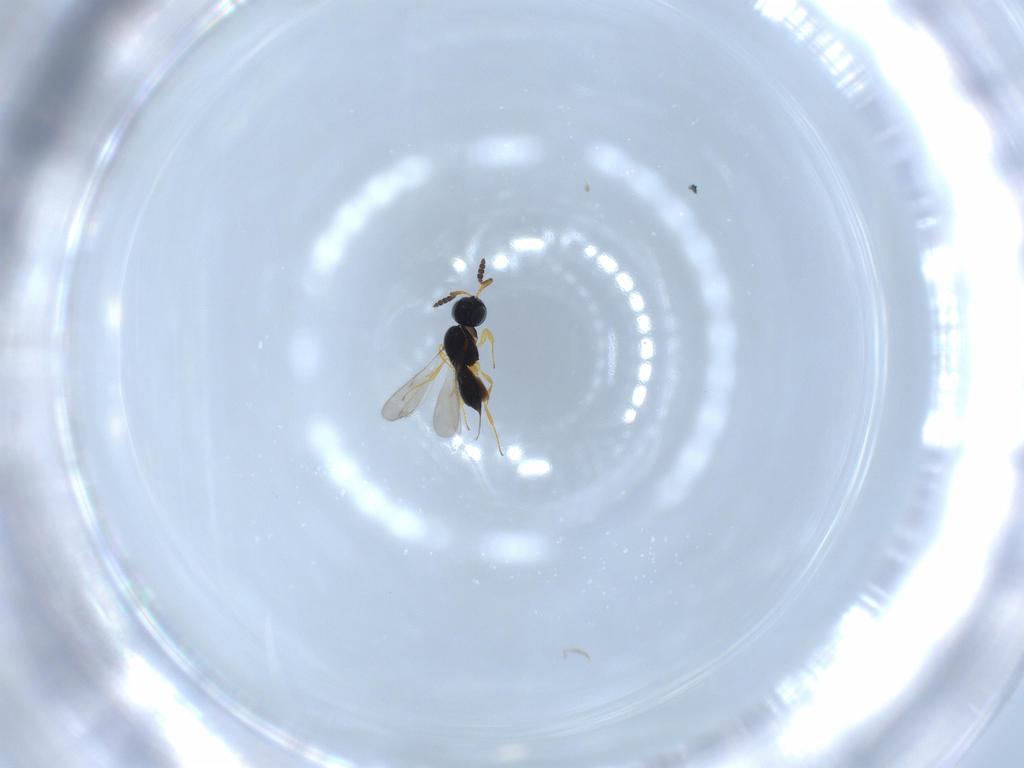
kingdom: Animalia
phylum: Arthropoda
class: Insecta
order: Hymenoptera
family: Scelionidae
